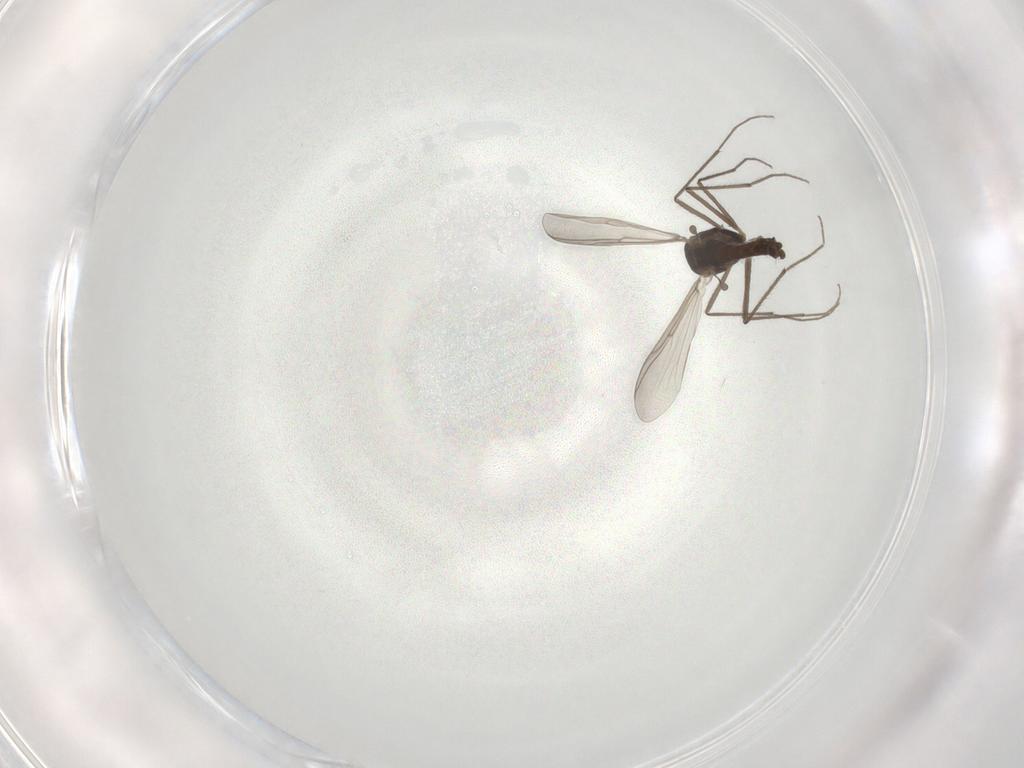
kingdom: Animalia
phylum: Arthropoda
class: Insecta
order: Diptera
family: Chironomidae
